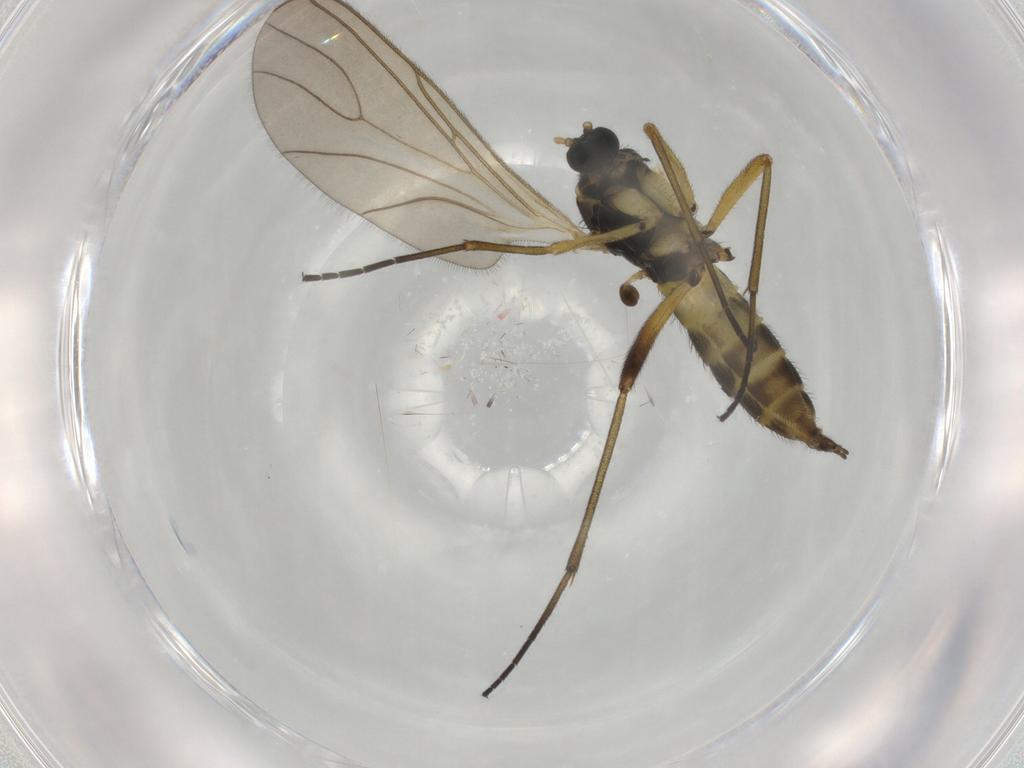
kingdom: Animalia
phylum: Arthropoda
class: Insecta
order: Diptera
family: Sciaridae
